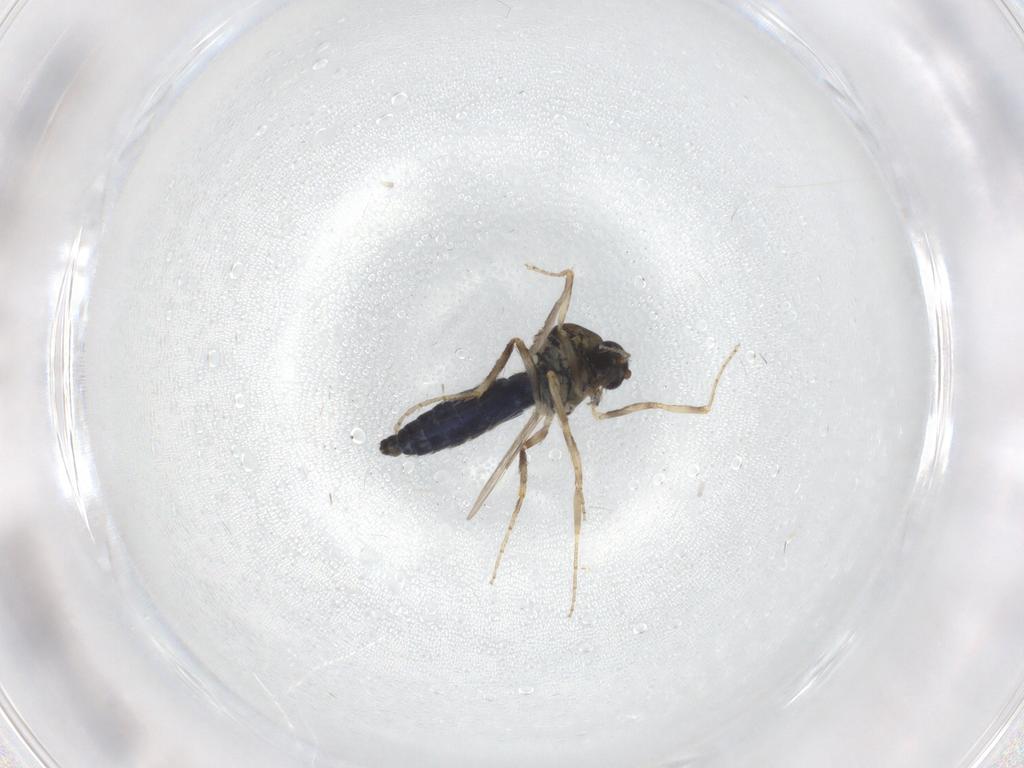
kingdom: Animalia
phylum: Arthropoda
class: Insecta
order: Diptera
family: Ceratopogonidae
